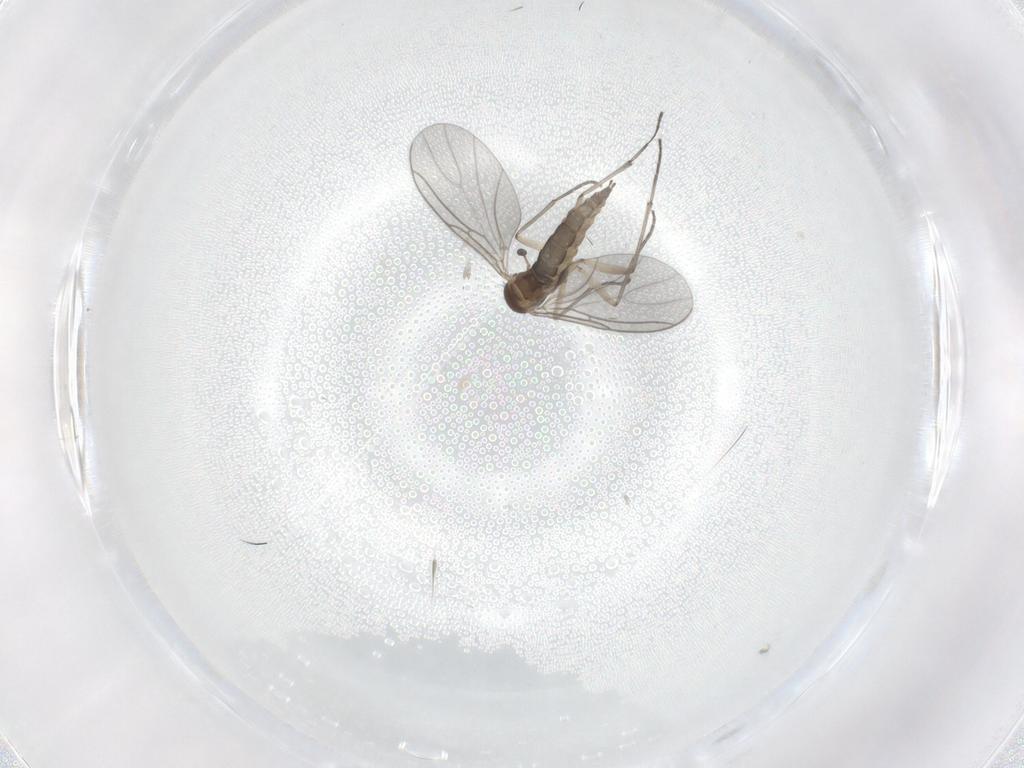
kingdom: Animalia
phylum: Arthropoda
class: Insecta
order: Diptera
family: Sciaridae
